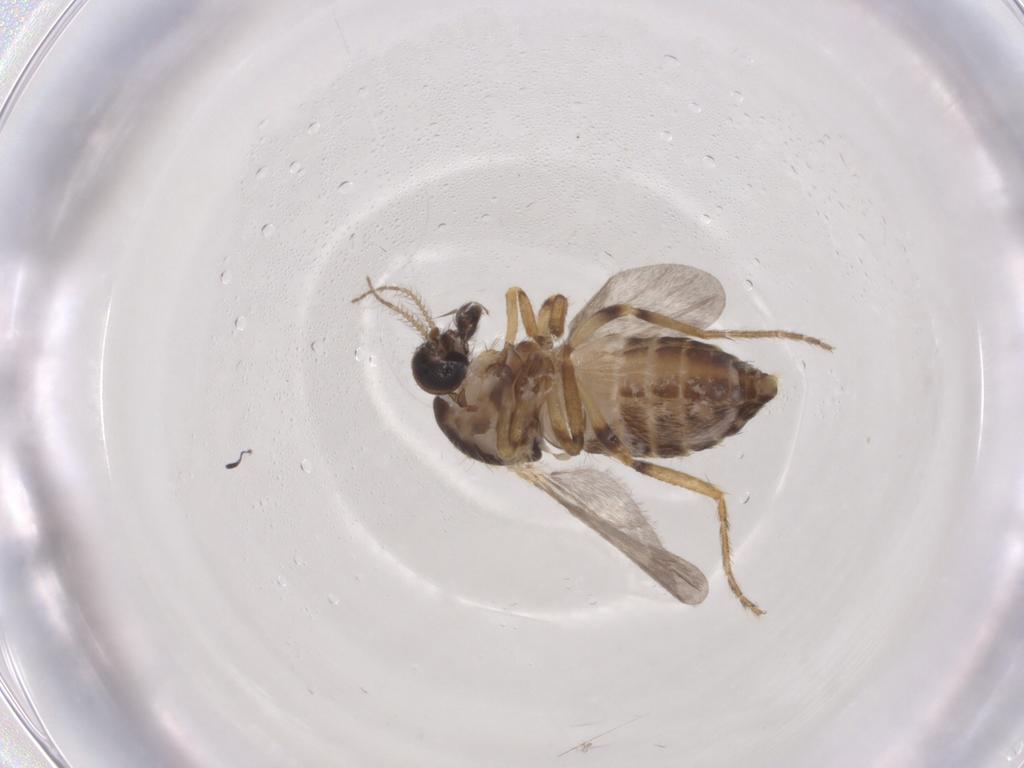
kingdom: Animalia
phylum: Arthropoda
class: Insecta
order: Diptera
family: Ceratopogonidae
